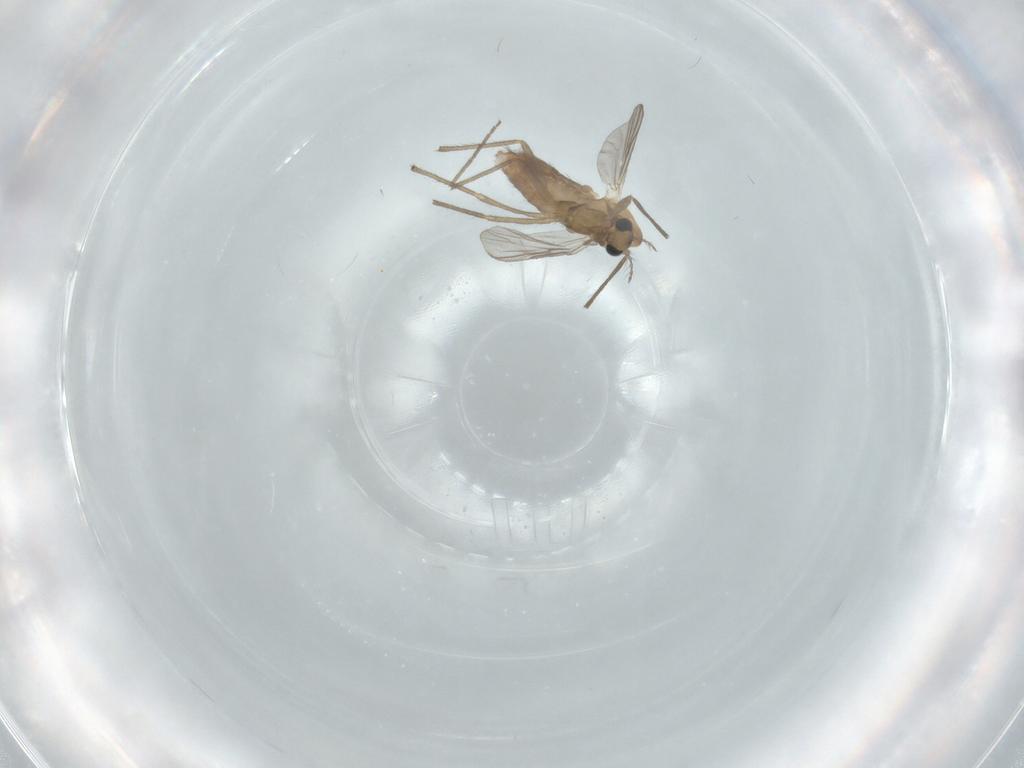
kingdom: Animalia
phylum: Arthropoda
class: Insecta
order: Diptera
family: Chironomidae
